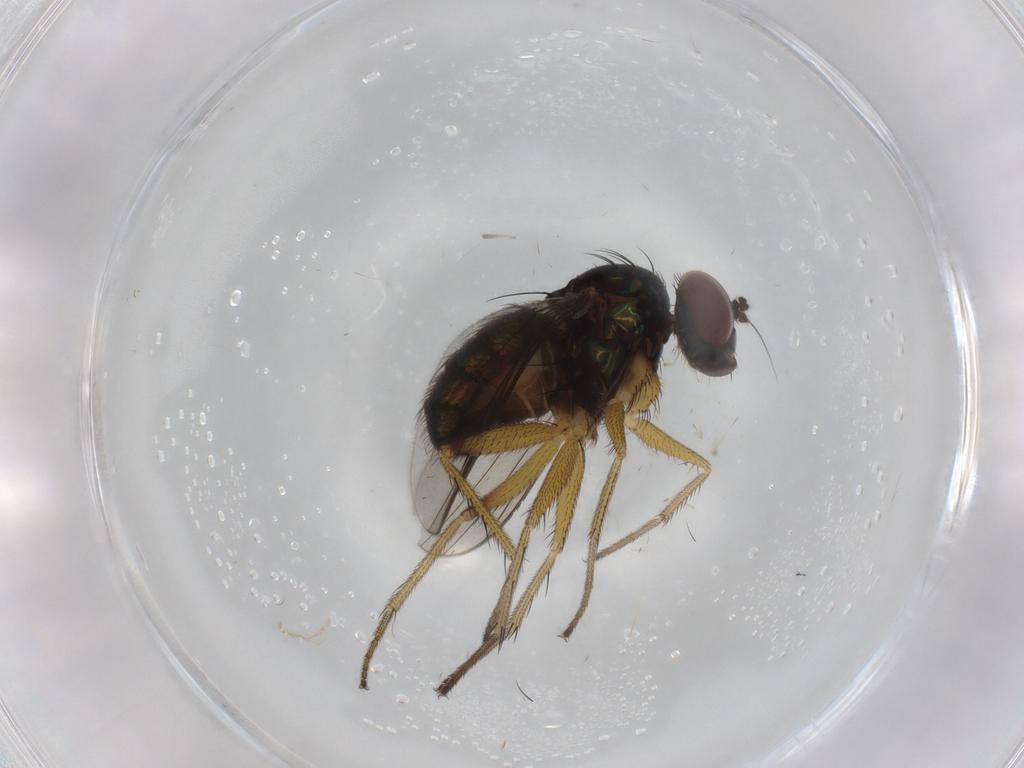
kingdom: Animalia
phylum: Arthropoda
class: Insecta
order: Diptera
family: Dolichopodidae
